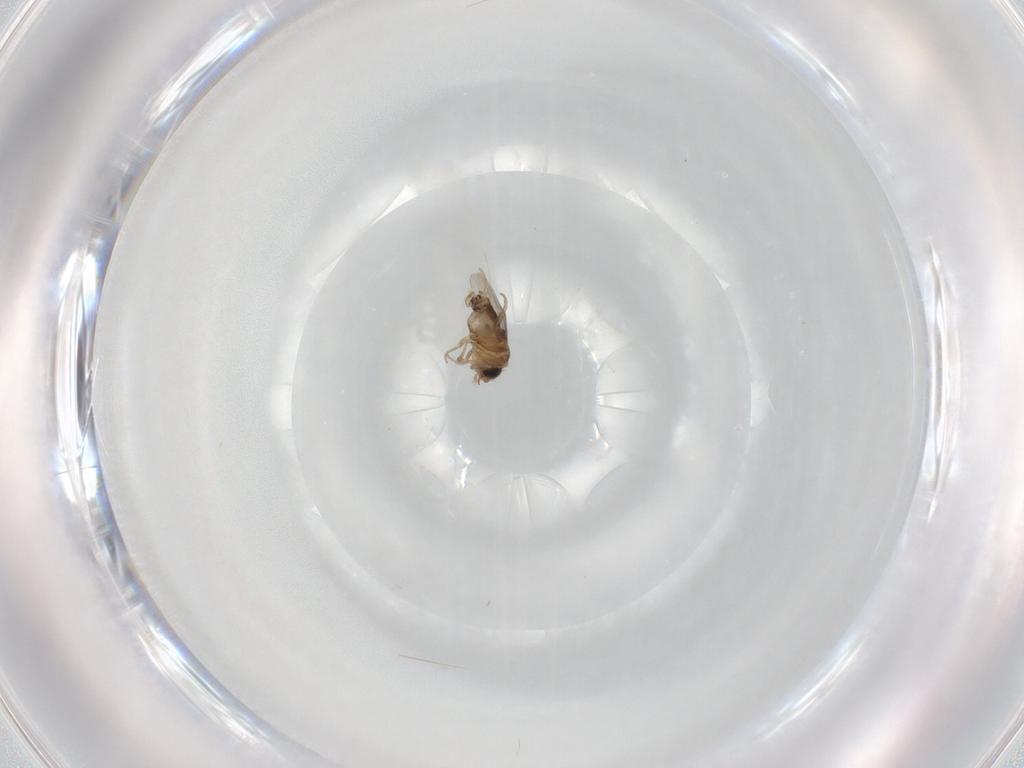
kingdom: Animalia
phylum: Arthropoda
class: Insecta
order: Diptera
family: Phoridae
